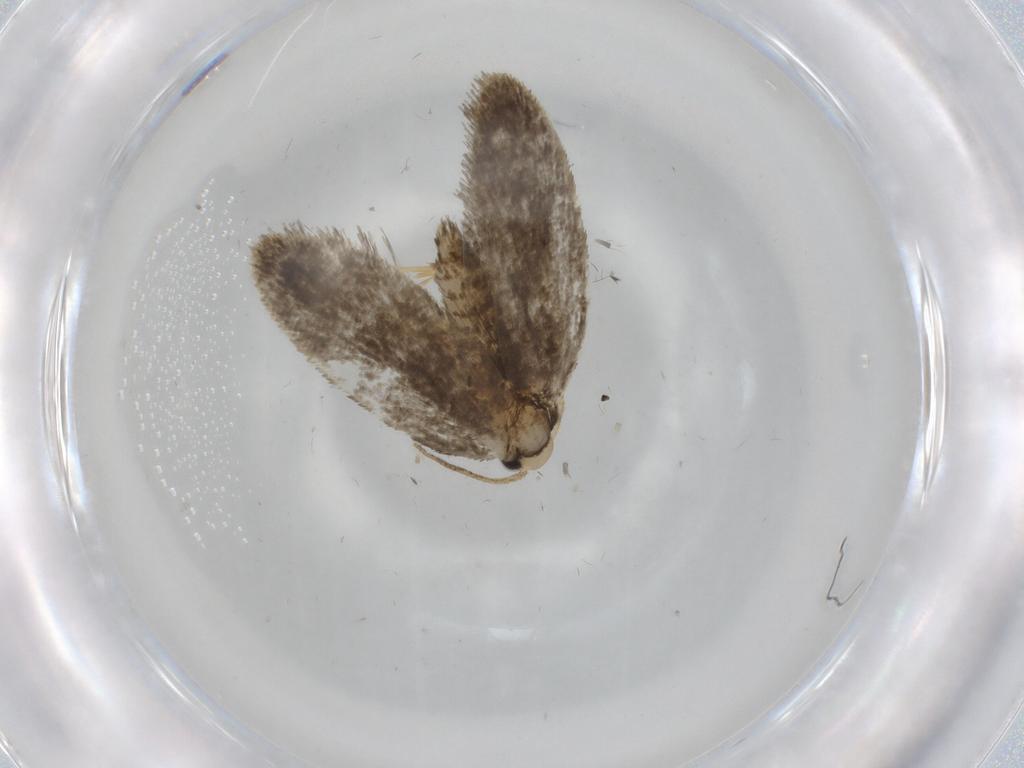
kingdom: Animalia
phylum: Arthropoda
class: Insecta
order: Lepidoptera
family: Psychidae
